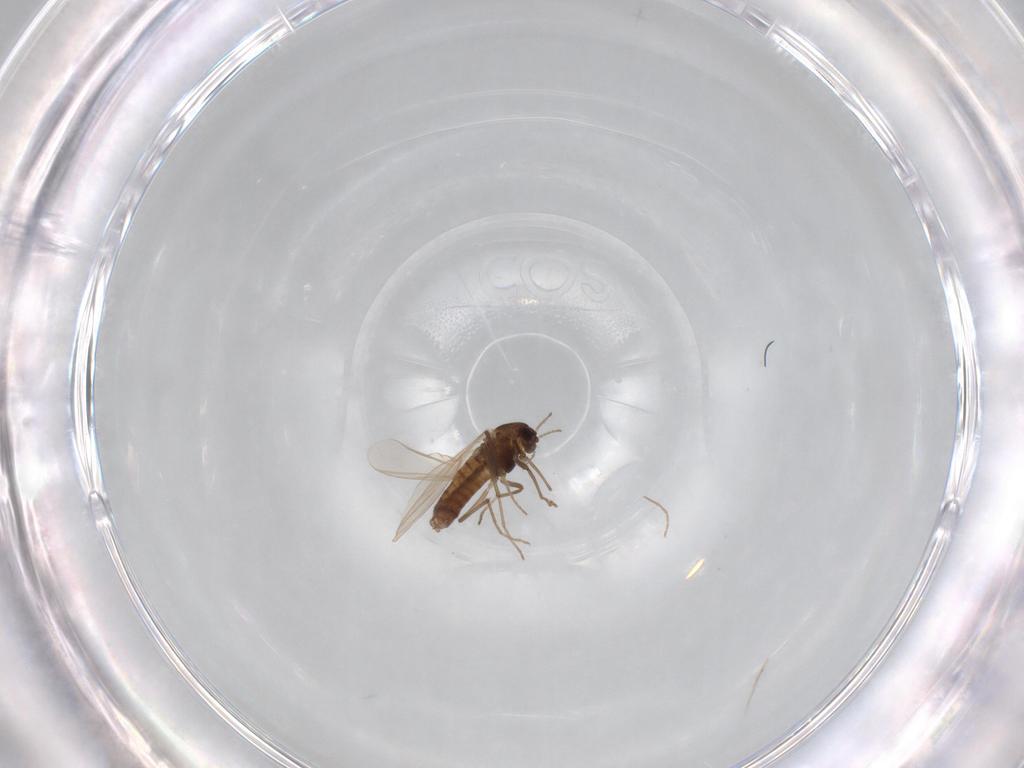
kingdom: Animalia
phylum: Arthropoda
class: Insecta
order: Diptera
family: Chironomidae
